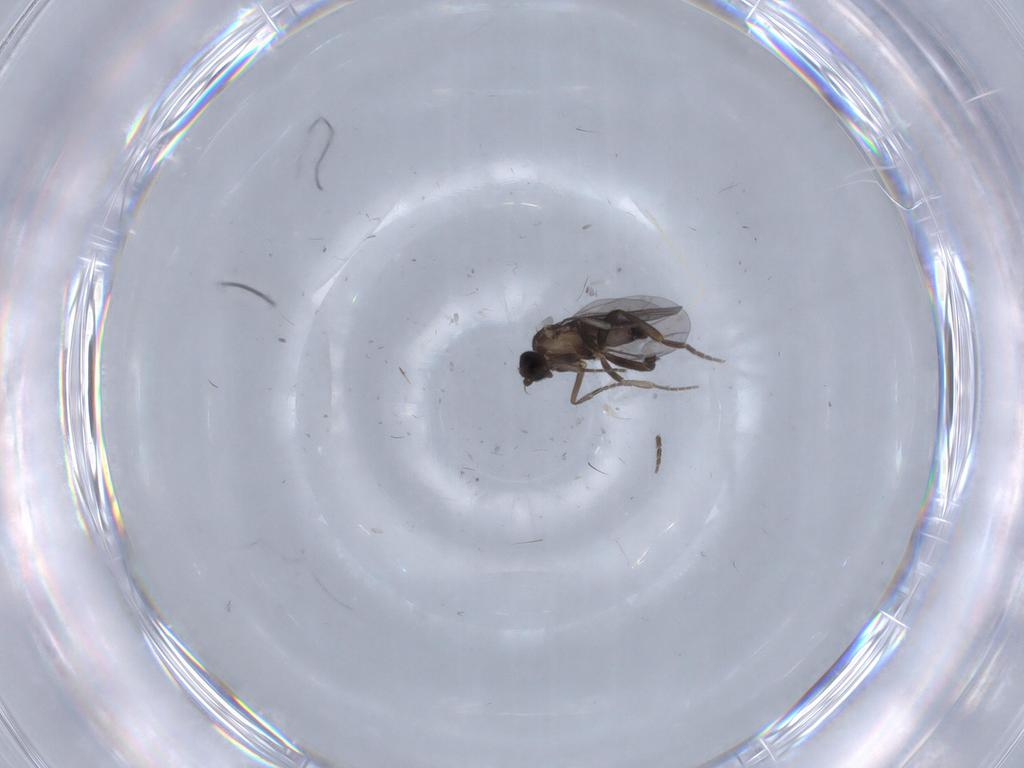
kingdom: Animalia
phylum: Arthropoda
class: Insecta
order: Diptera
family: Phoridae
